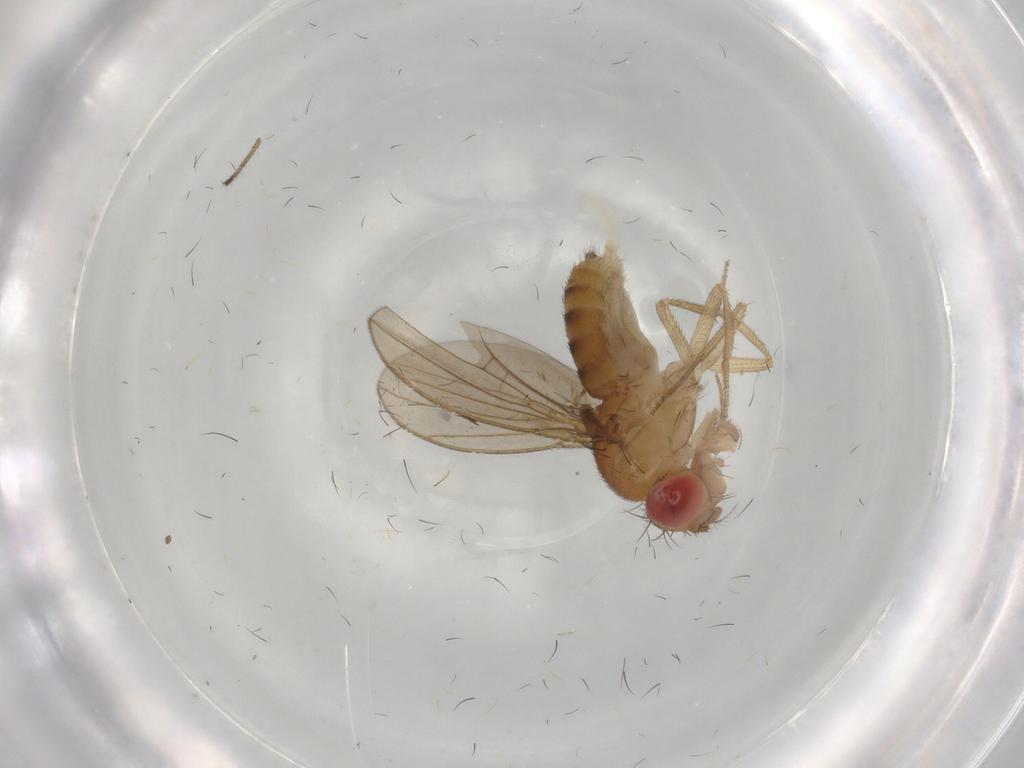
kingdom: Animalia
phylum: Arthropoda
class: Insecta
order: Diptera
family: Drosophilidae
